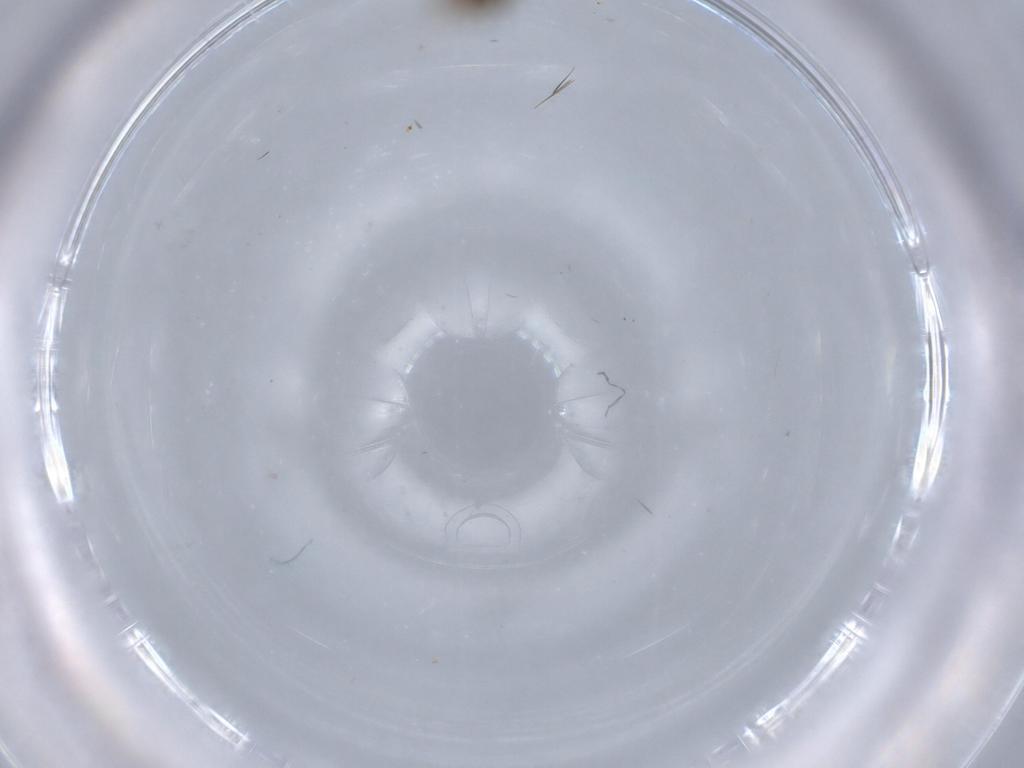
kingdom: Animalia
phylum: Arthropoda
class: Insecta
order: Diptera
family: Chironomidae
